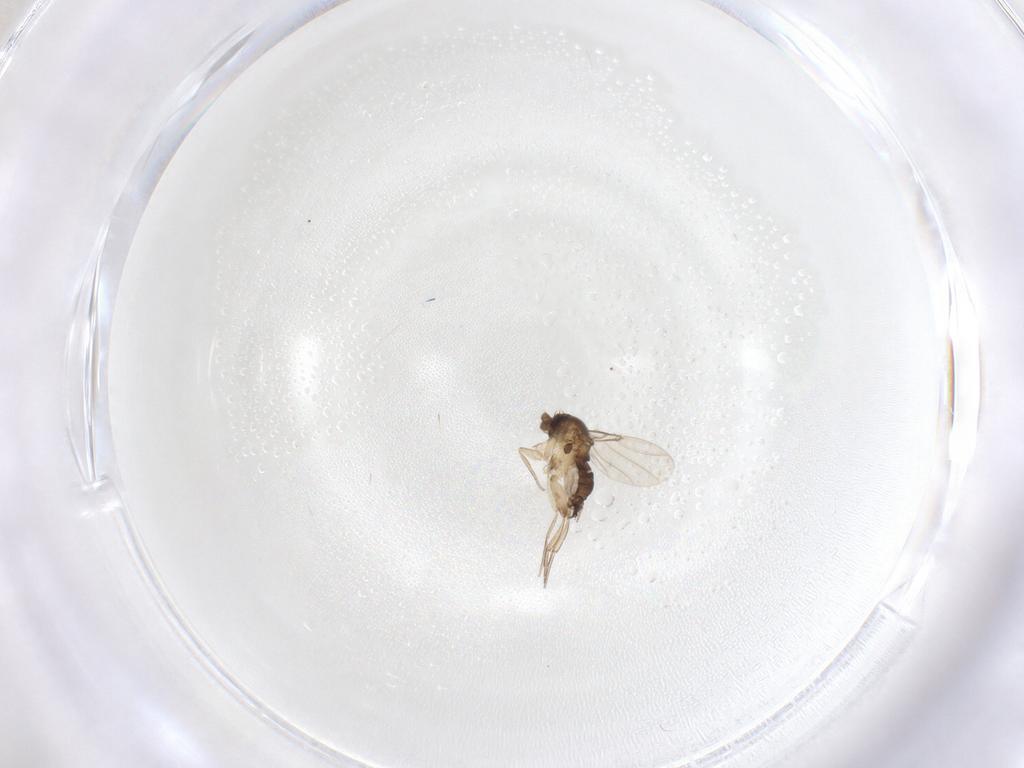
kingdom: Animalia
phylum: Arthropoda
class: Insecta
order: Diptera
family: Phoridae
